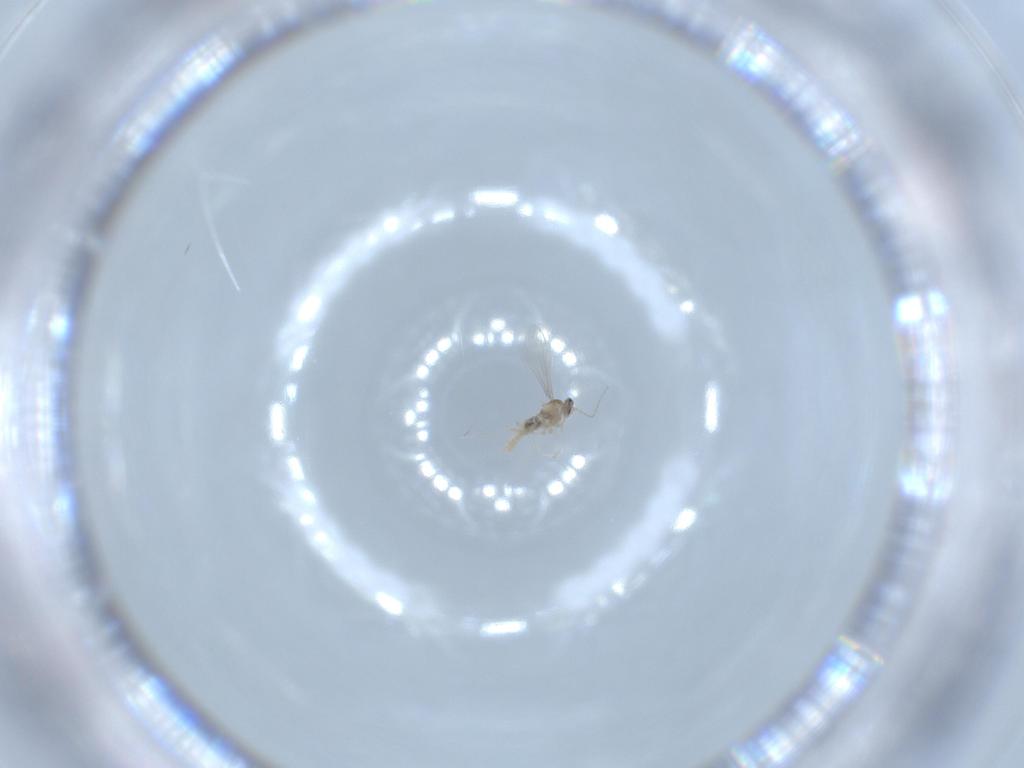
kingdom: Animalia
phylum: Arthropoda
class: Insecta
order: Diptera
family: Cecidomyiidae
